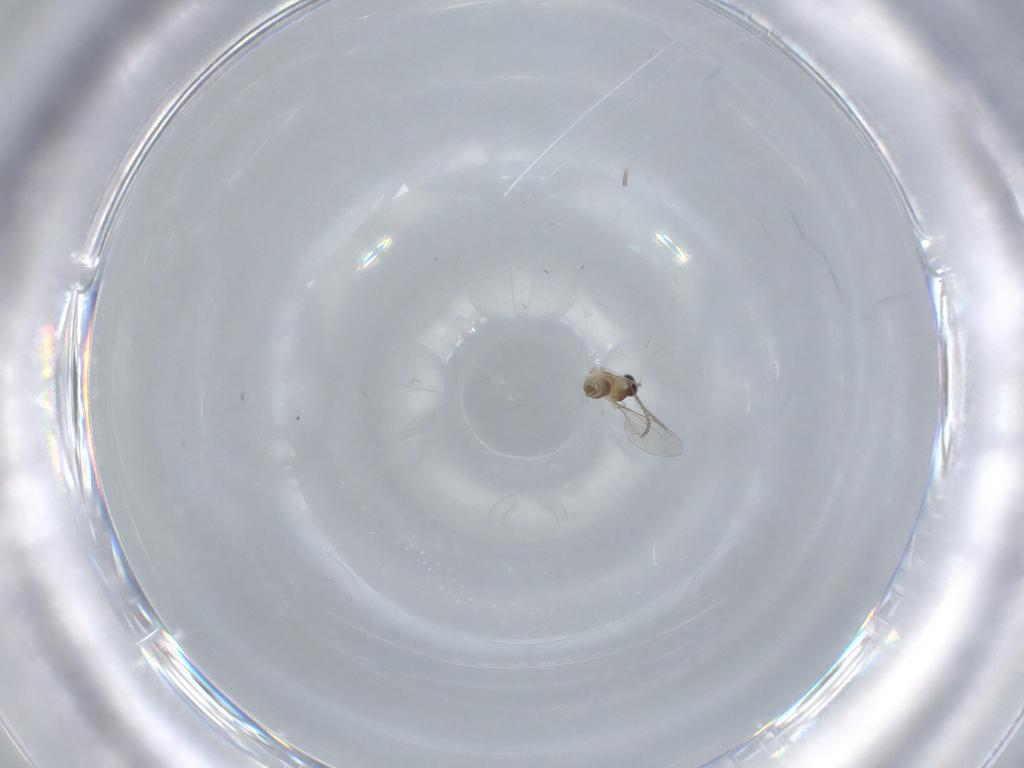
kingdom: Animalia
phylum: Arthropoda
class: Insecta
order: Diptera
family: Cecidomyiidae
